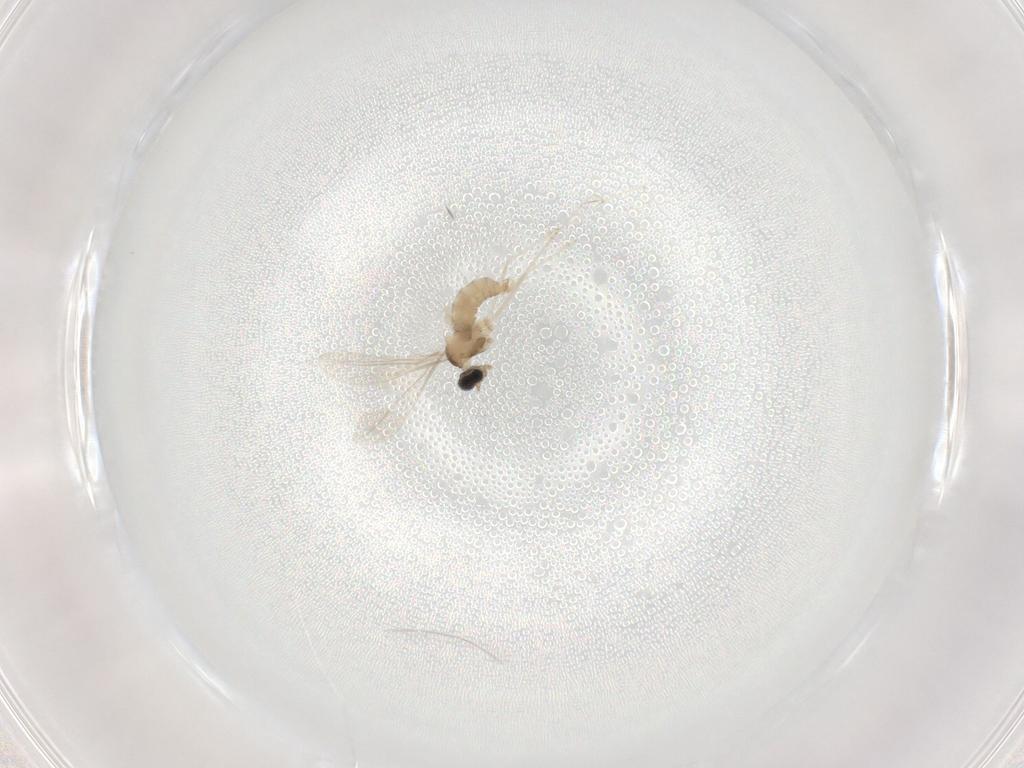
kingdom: Animalia
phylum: Arthropoda
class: Insecta
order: Diptera
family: Cecidomyiidae
